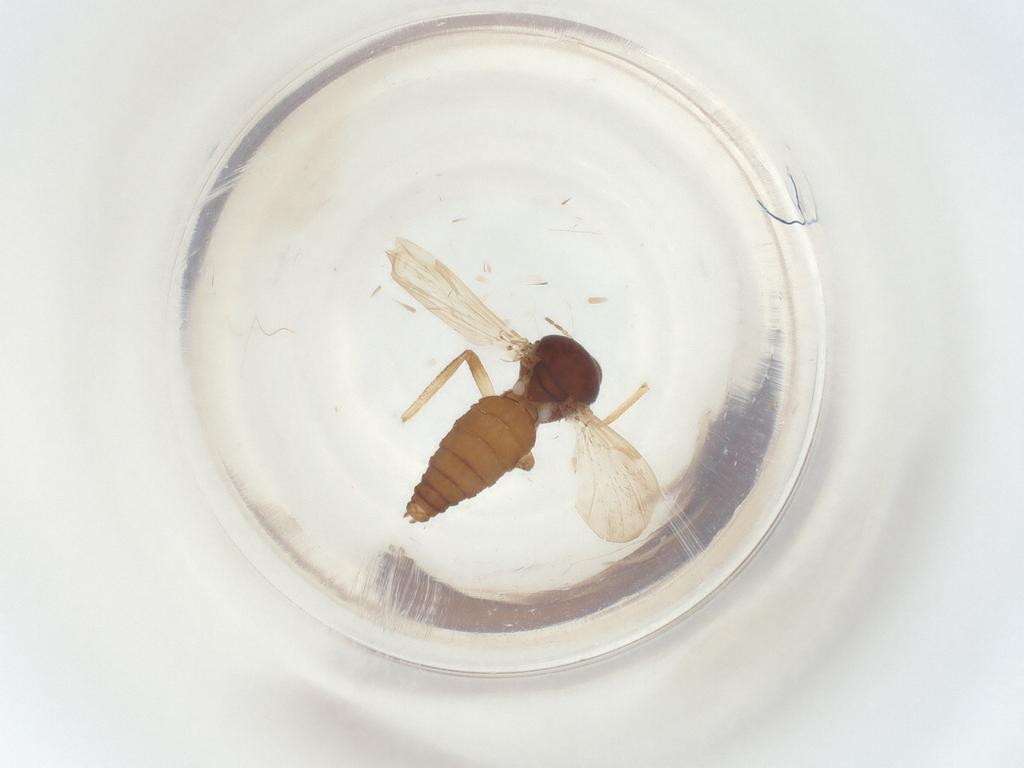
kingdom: Animalia
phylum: Arthropoda
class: Insecta
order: Diptera
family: Ceratopogonidae
